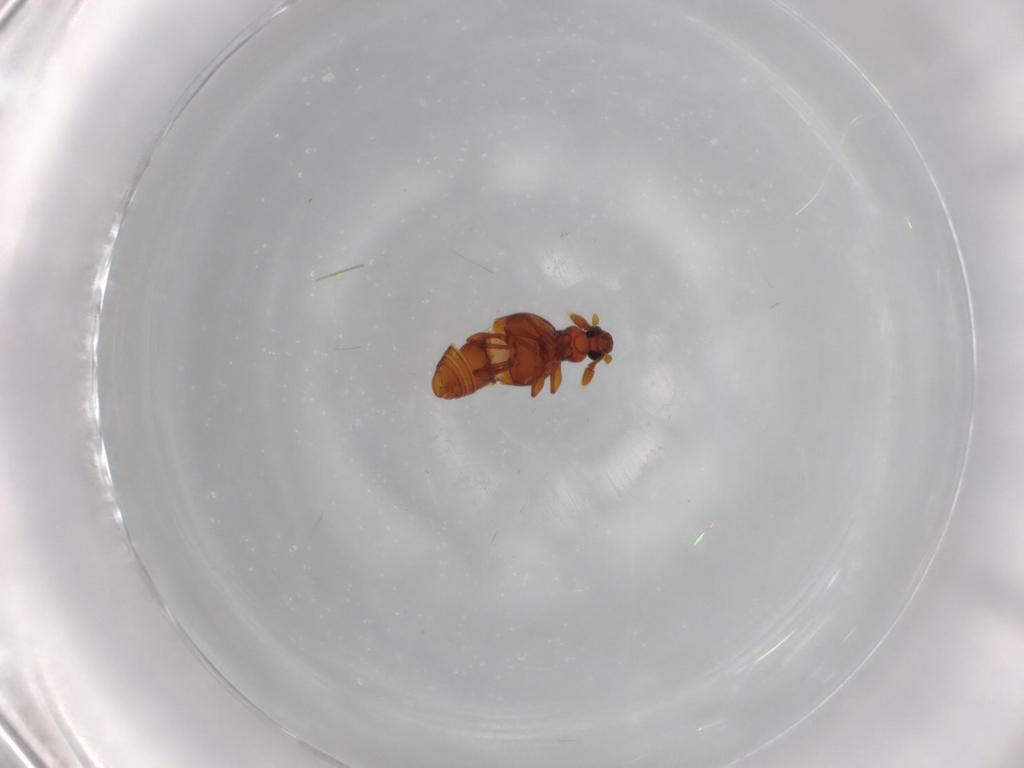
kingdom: Animalia
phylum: Arthropoda
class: Insecta
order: Coleoptera
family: Staphylinidae
